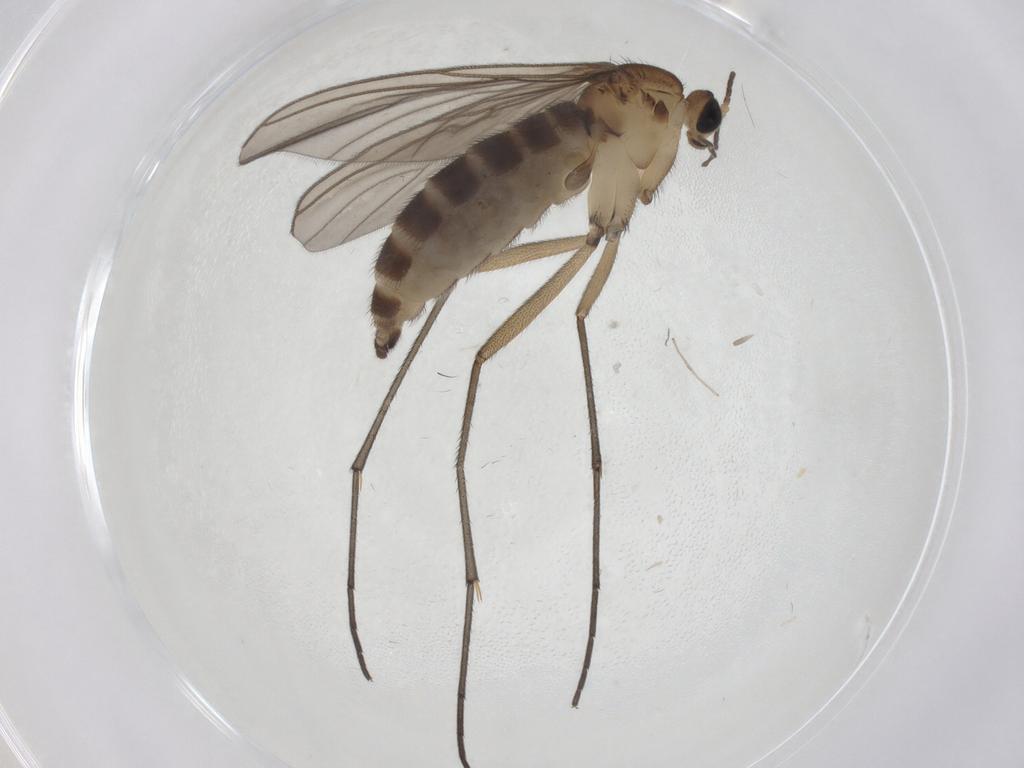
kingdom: Animalia
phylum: Arthropoda
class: Insecta
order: Diptera
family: Sciaridae
